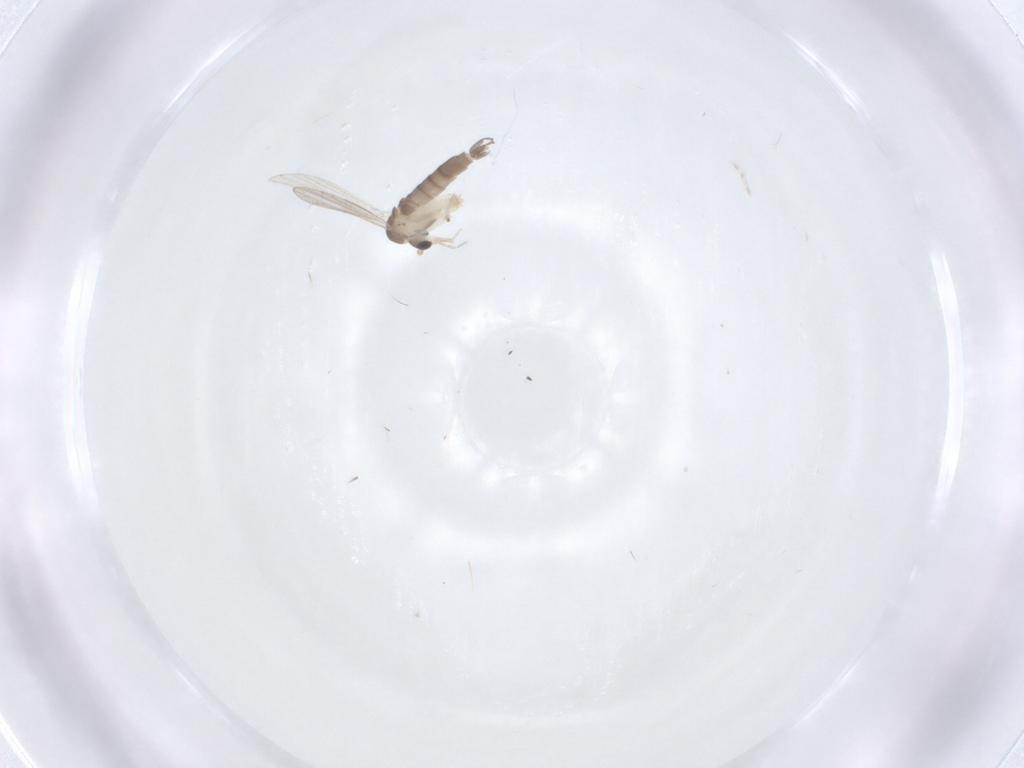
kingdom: Animalia
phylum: Arthropoda
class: Insecta
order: Diptera
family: Psychodidae
